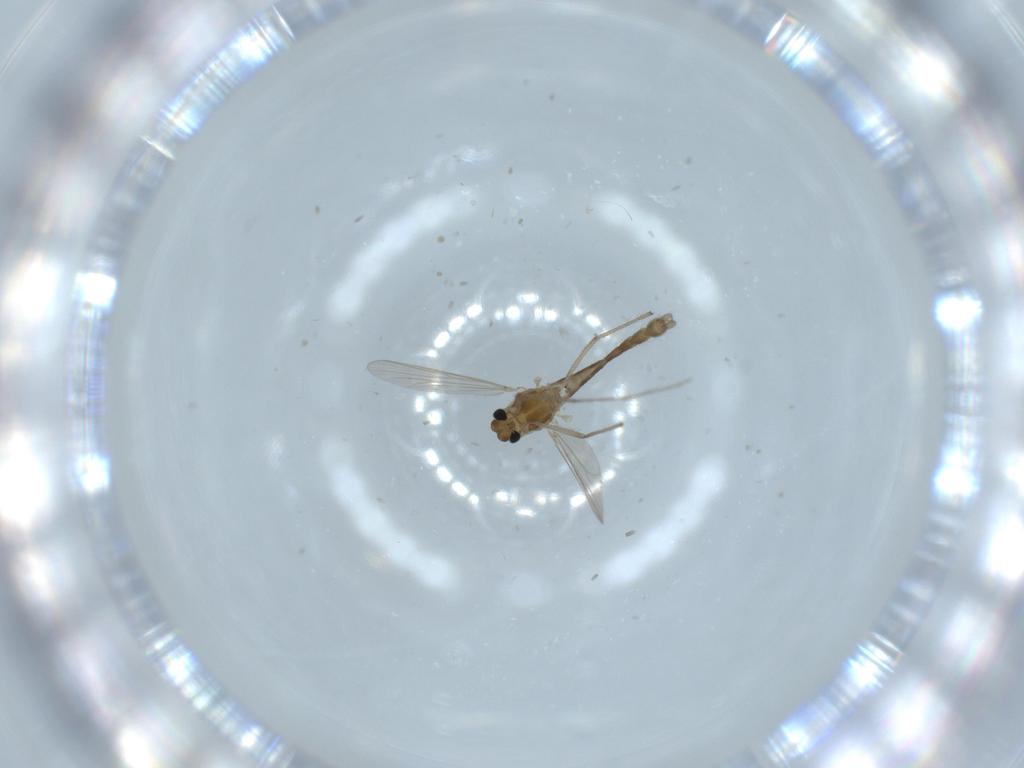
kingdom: Animalia
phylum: Arthropoda
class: Insecta
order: Diptera
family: Chironomidae
